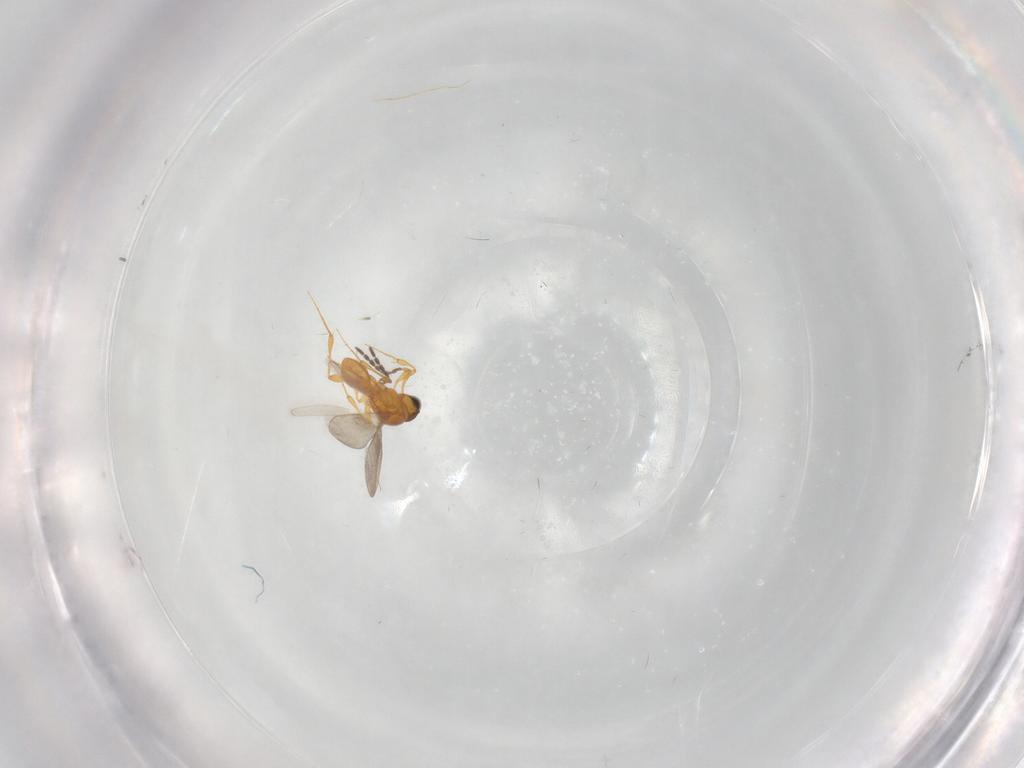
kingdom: Animalia
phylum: Arthropoda
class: Insecta
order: Hymenoptera
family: Platygastridae
